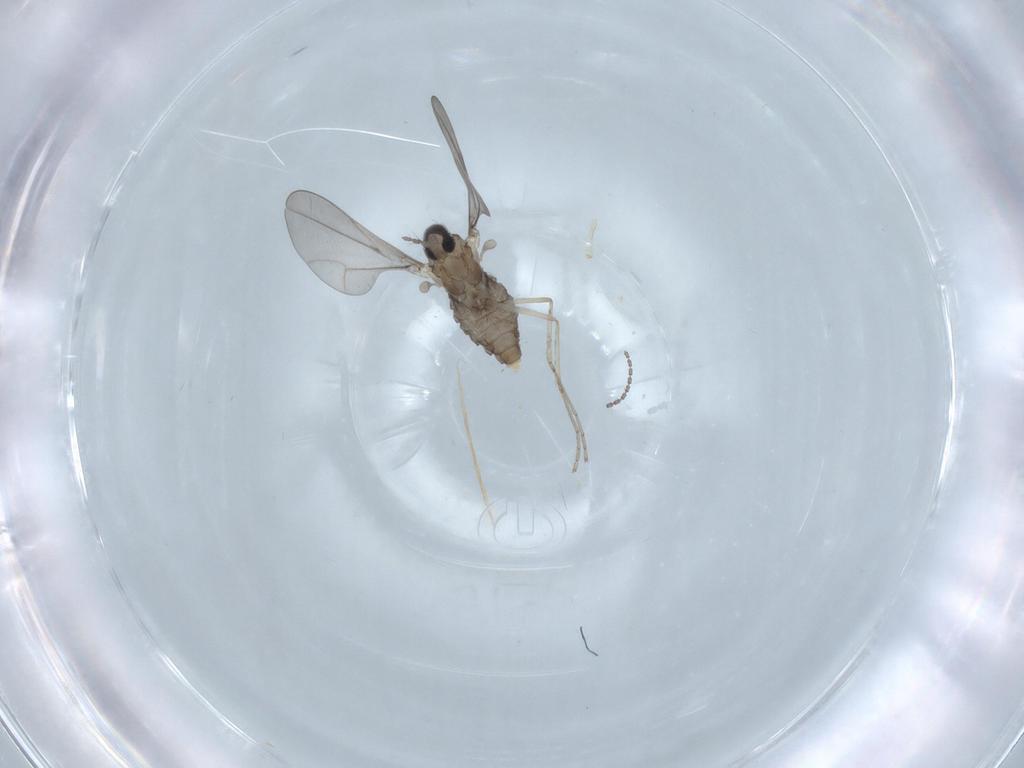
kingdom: Animalia
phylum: Arthropoda
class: Insecta
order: Diptera
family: Cecidomyiidae
